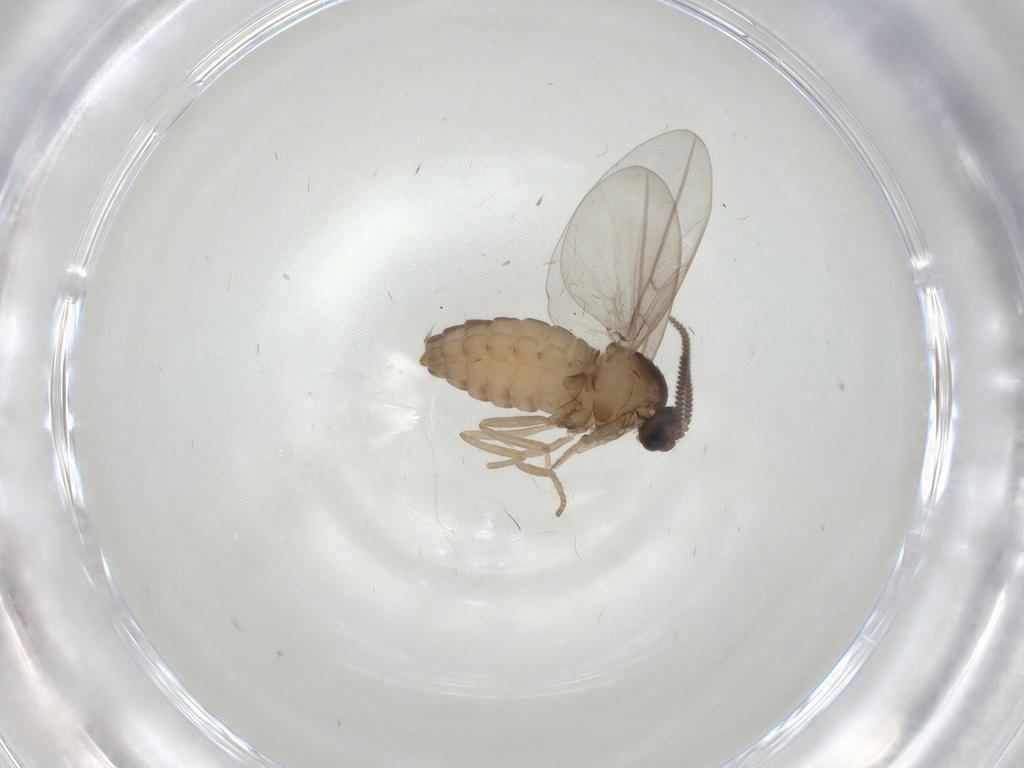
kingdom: Animalia
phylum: Arthropoda
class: Insecta
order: Diptera
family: Cecidomyiidae
